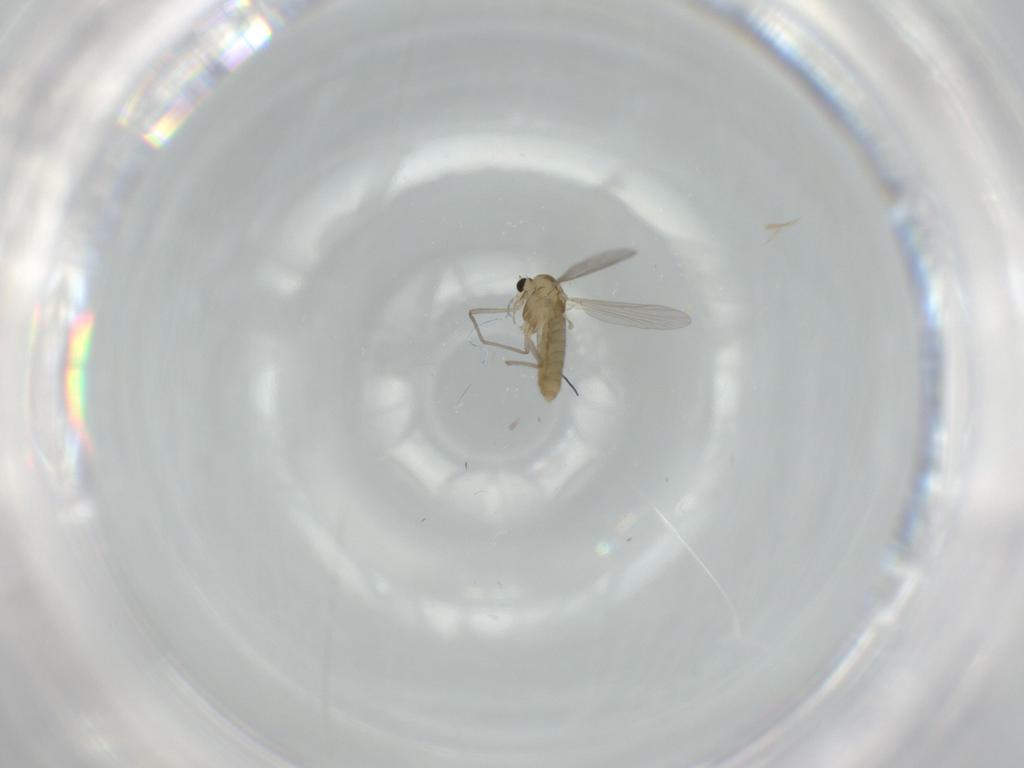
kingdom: Animalia
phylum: Arthropoda
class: Insecta
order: Diptera
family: Chironomidae
